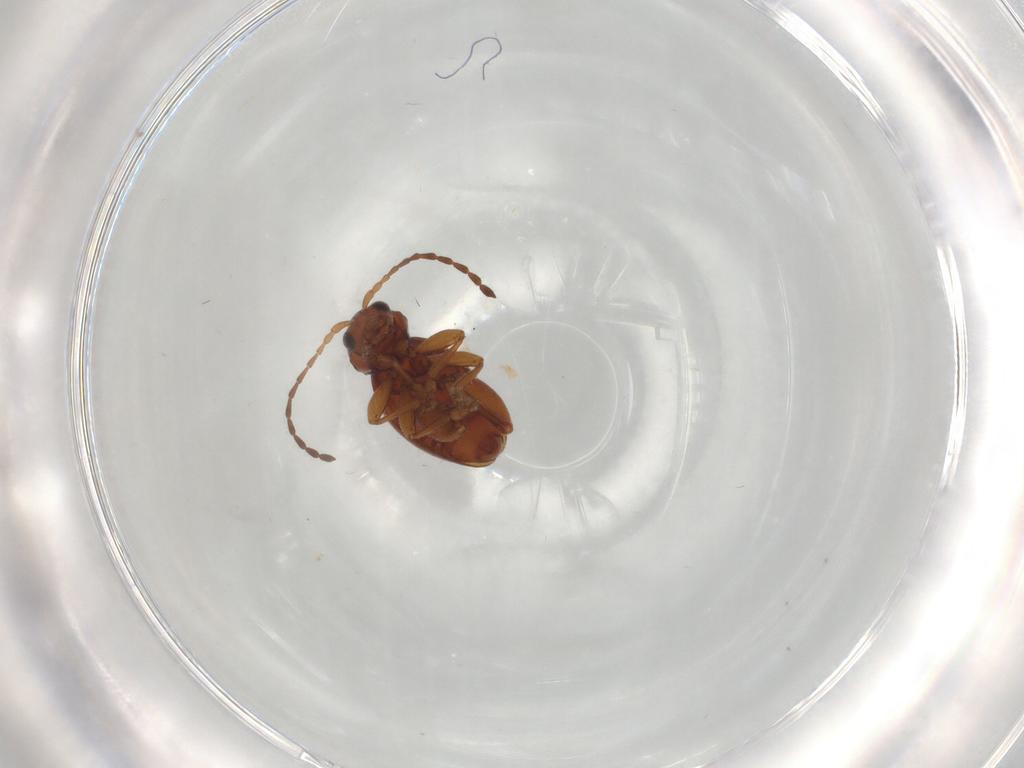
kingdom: Animalia
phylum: Arthropoda
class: Insecta
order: Coleoptera
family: Chrysomelidae
